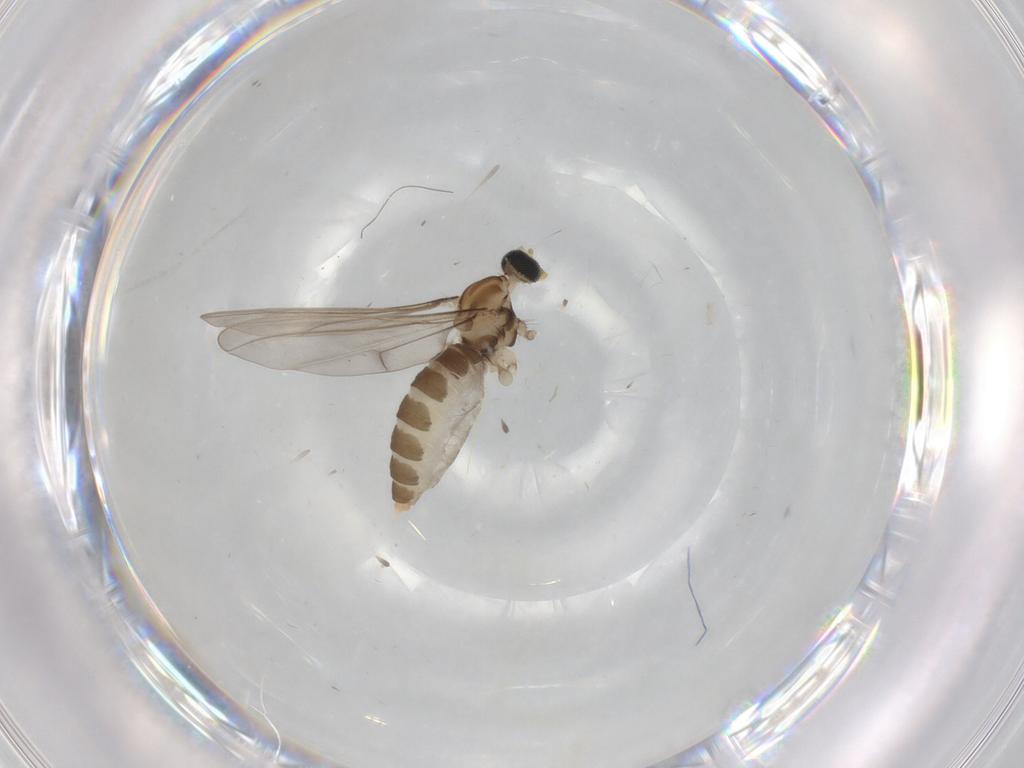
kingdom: Animalia
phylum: Arthropoda
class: Insecta
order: Diptera
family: Cecidomyiidae
